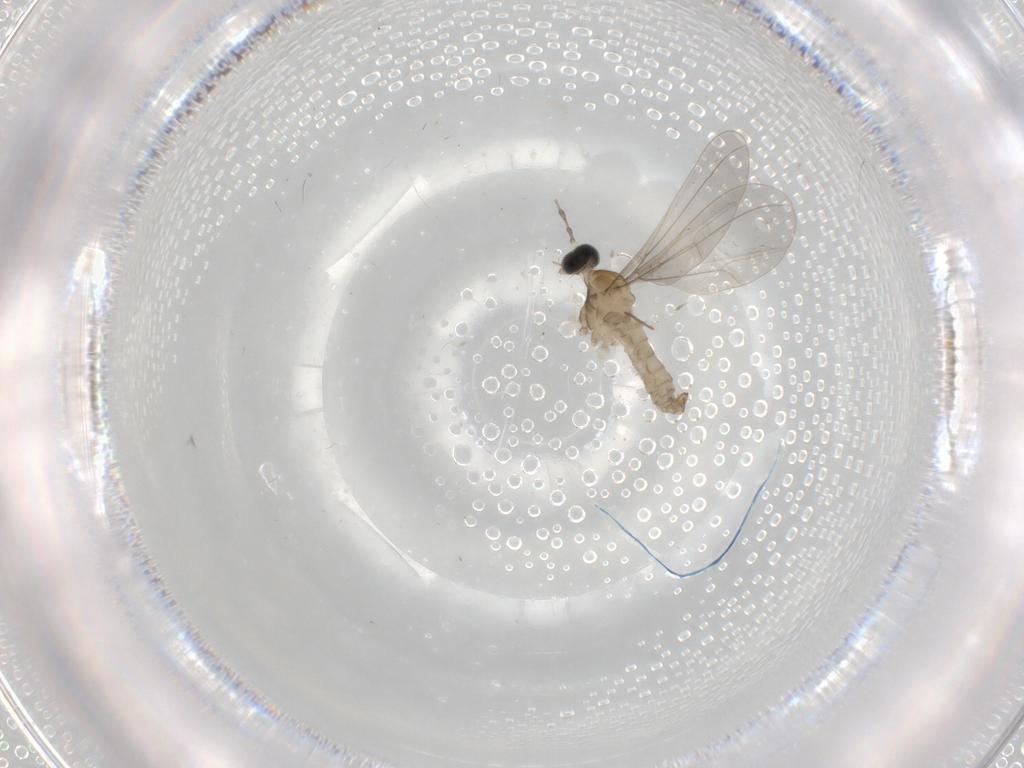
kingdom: Animalia
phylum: Arthropoda
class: Insecta
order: Diptera
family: Cecidomyiidae
